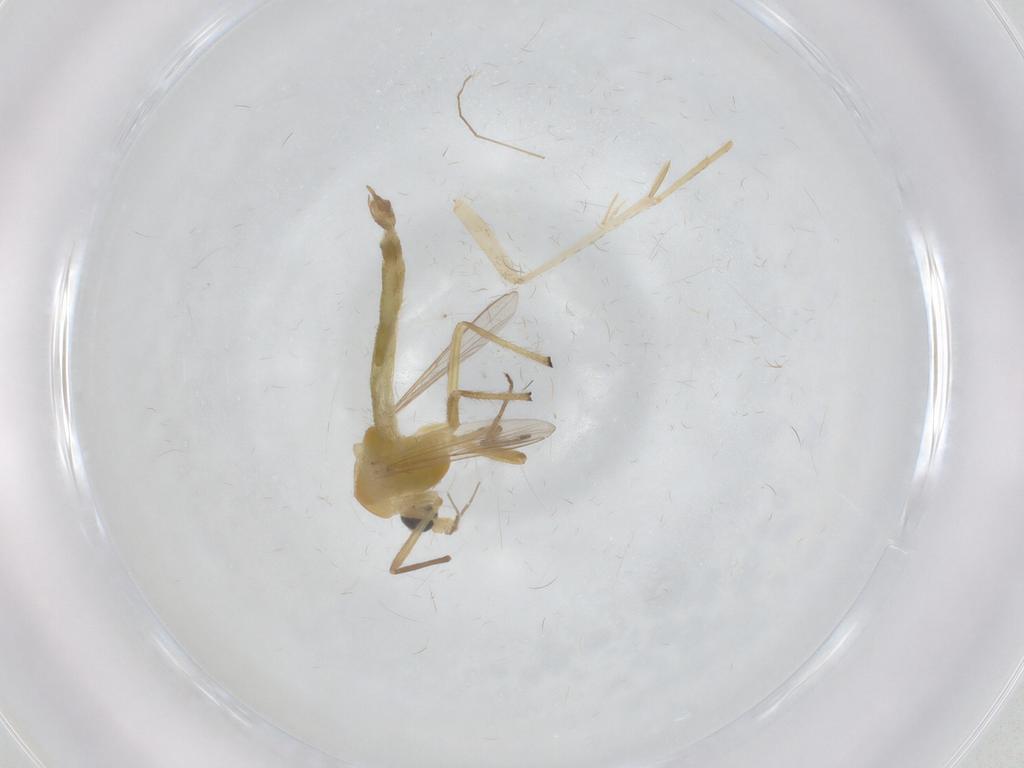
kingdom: Animalia
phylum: Arthropoda
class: Insecta
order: Diptera
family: Chironomidae
